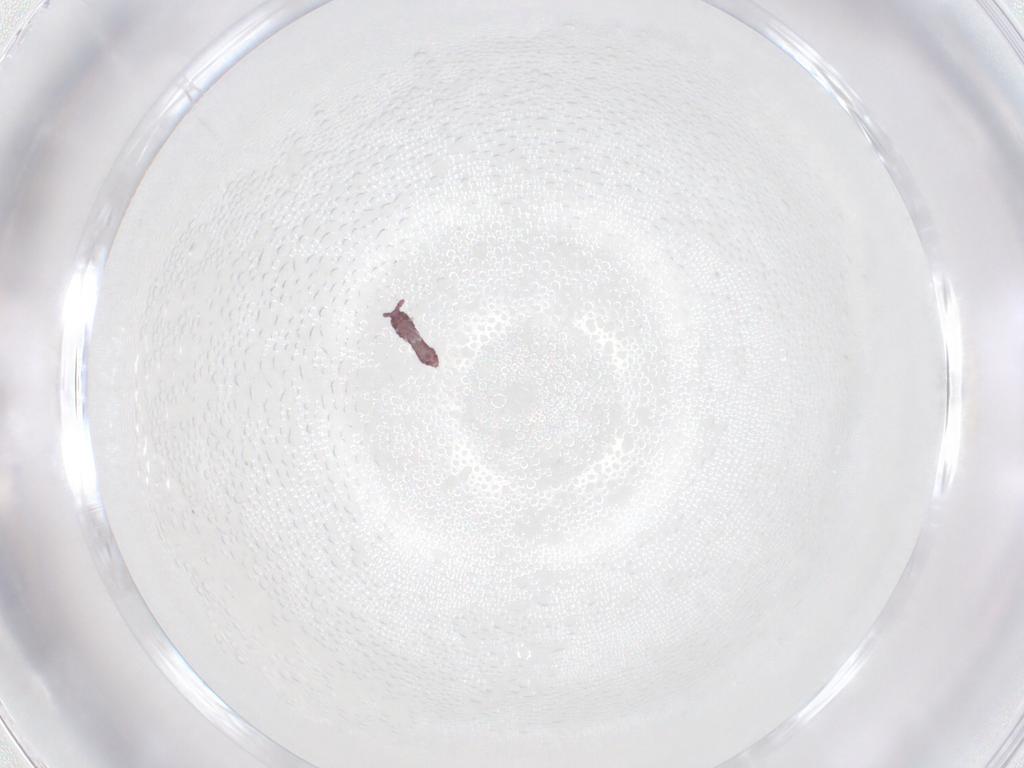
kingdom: Animalia
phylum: Arthropoda
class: Collembola
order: Poduromorpha
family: Hypogastruridae
